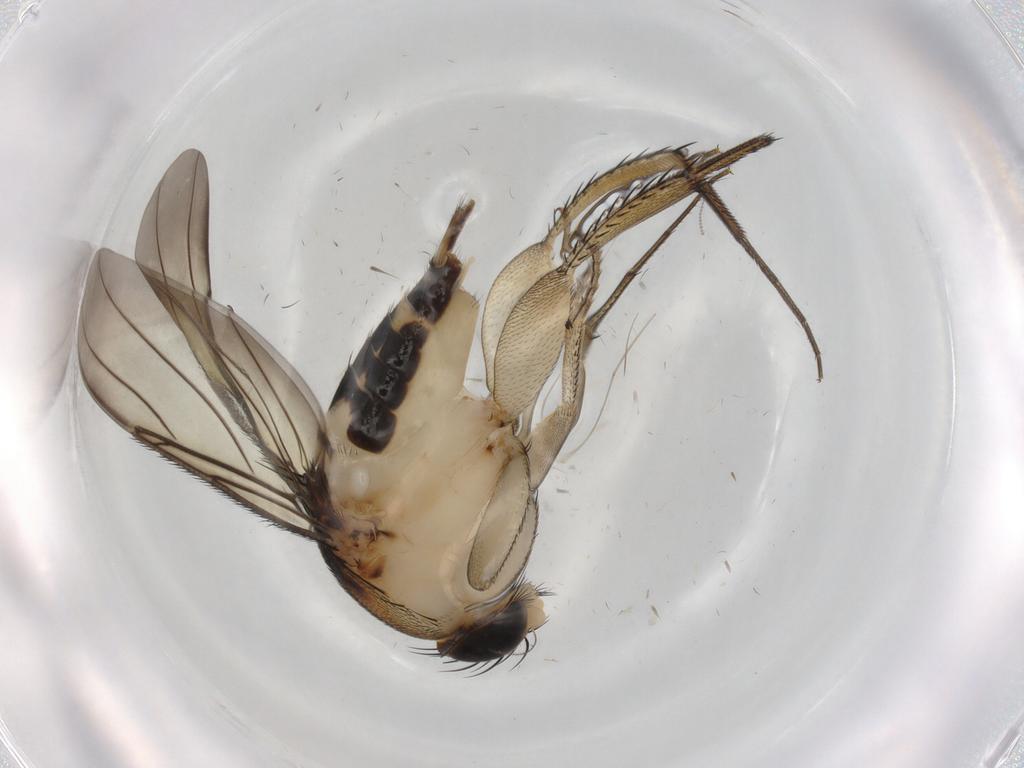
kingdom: Animalia
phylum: Arthropoda
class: Insecta
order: Diptera
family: Phoridae
